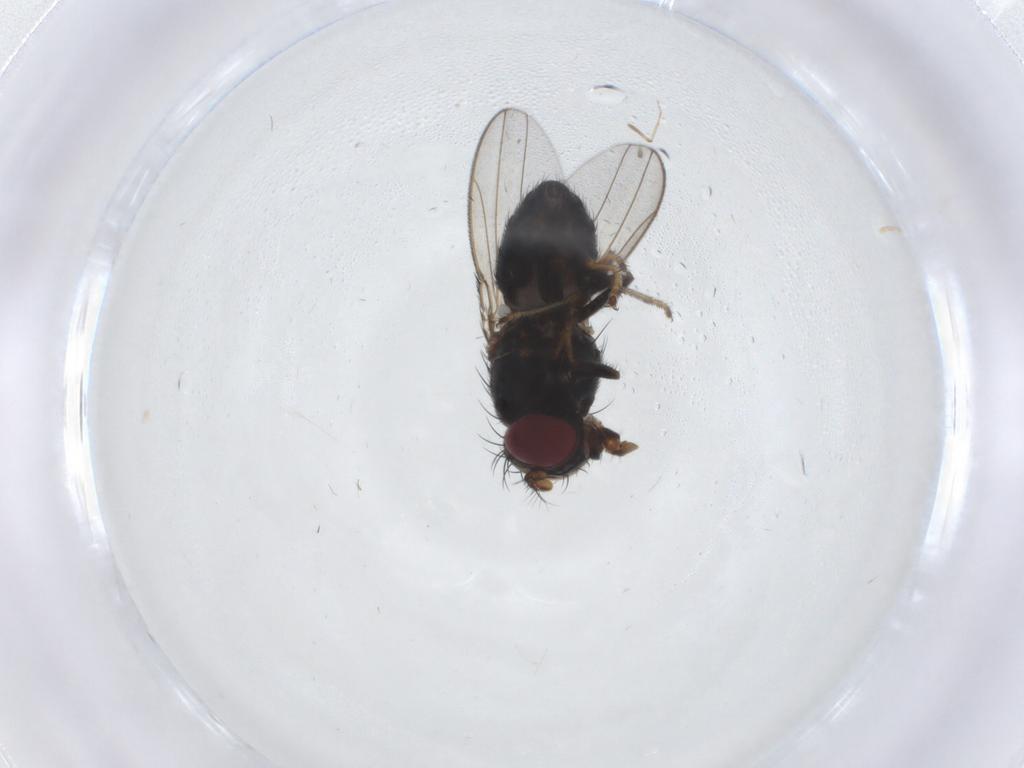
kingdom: Animalia
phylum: Arthropoda
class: Insecta
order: Diptera
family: Ephydridae
